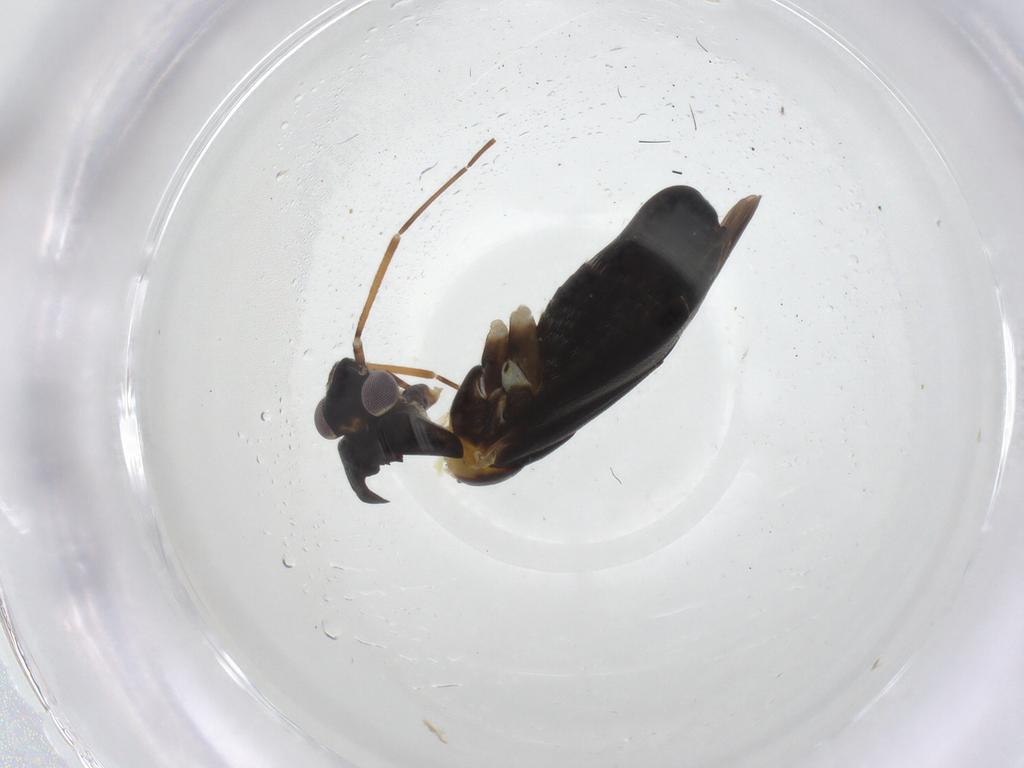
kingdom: Animalia
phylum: Arthropoda
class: Insecta
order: Hemiptera
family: Miridae
